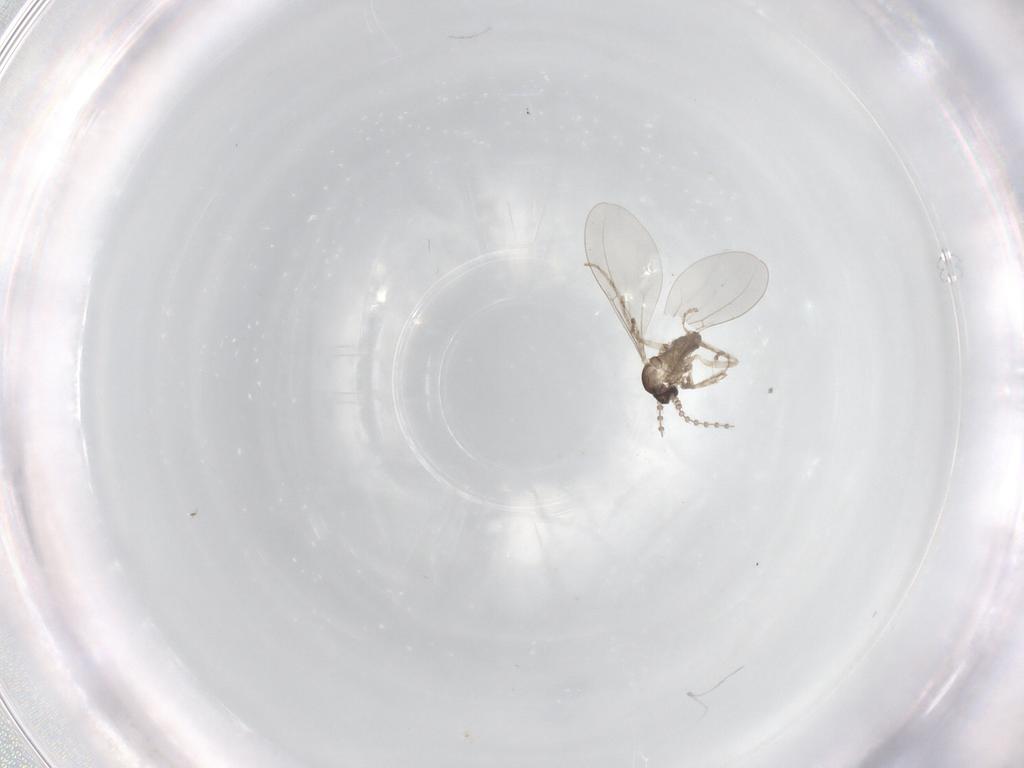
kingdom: Animalia
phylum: Arthropoda
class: Insecta
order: Diptera
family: Cecidomyiidae
